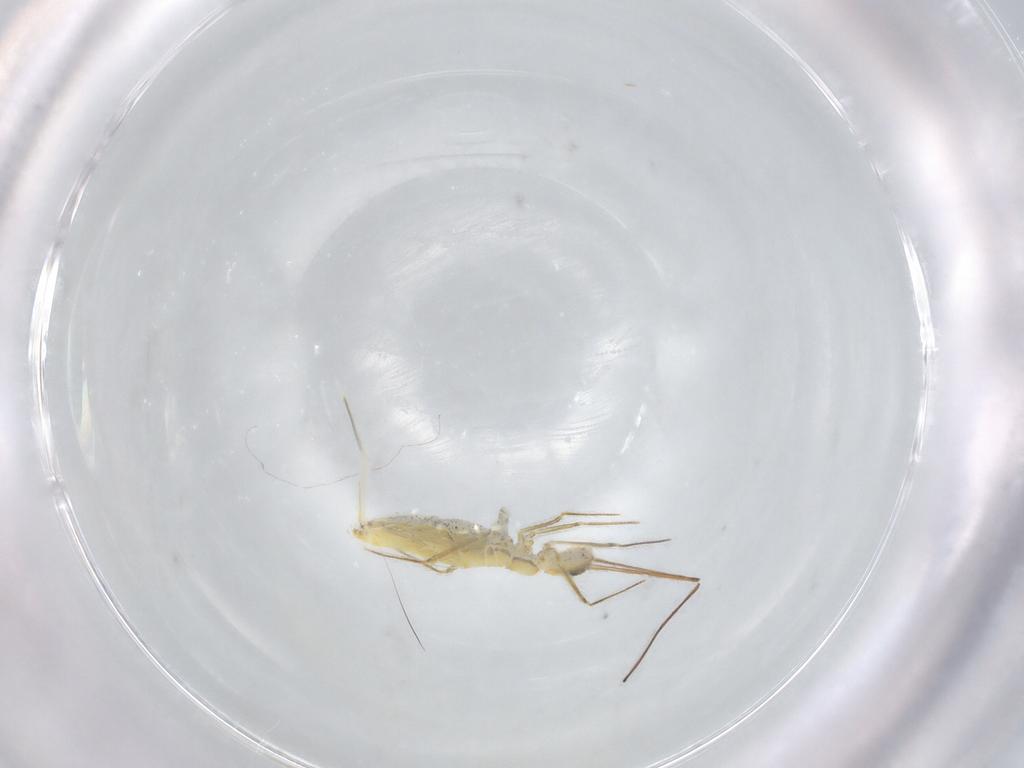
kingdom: Animalia
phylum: Arthropoda
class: Collembola
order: Entomobryomorpha
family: Entomobryidae
